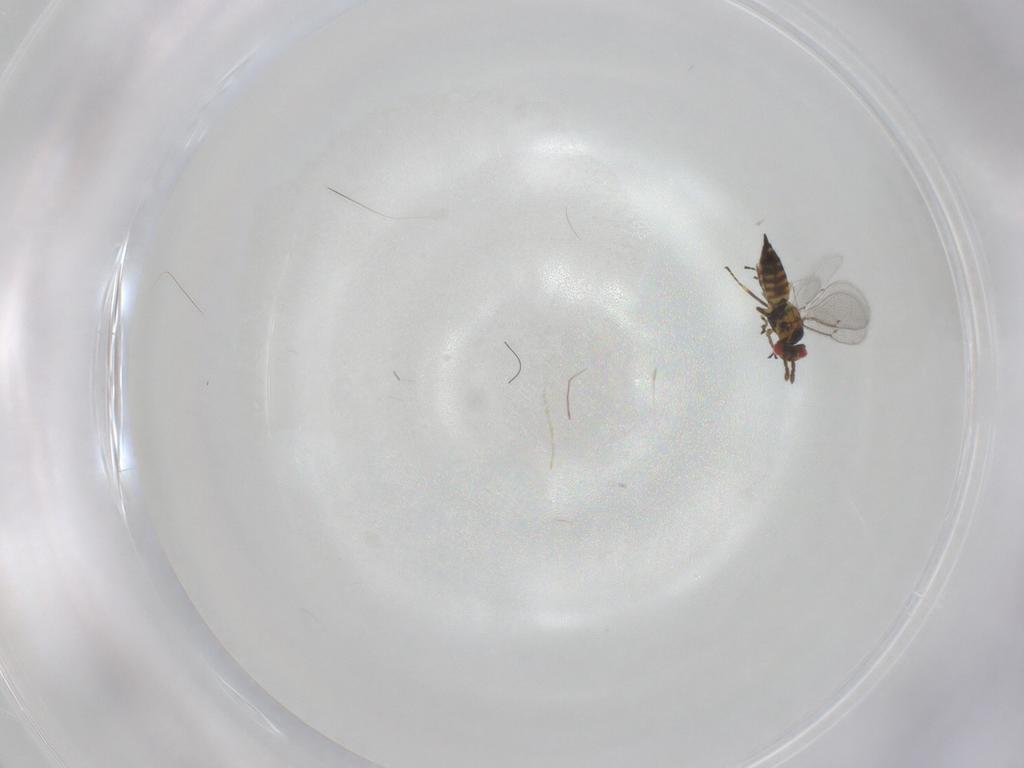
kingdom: Animalia
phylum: Arthropoda
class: Insecta
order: Hymenoptera
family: Eulophidae
